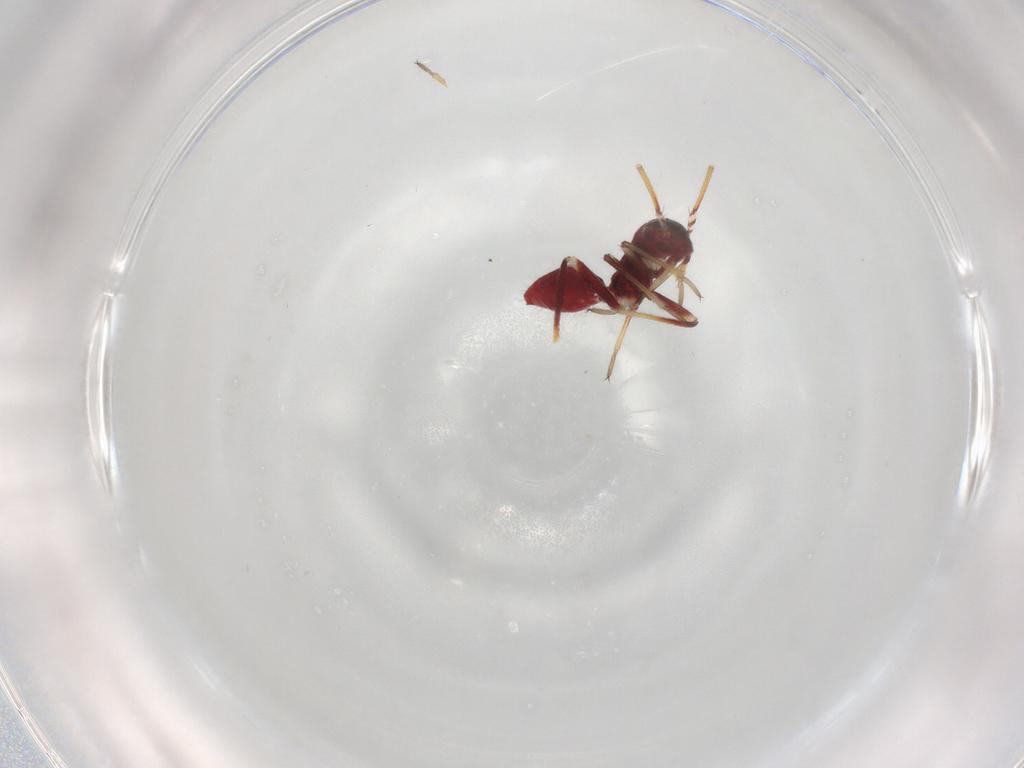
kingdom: Animalia
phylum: Arthropoda
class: Insecta
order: Hemiptera
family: Miridae
